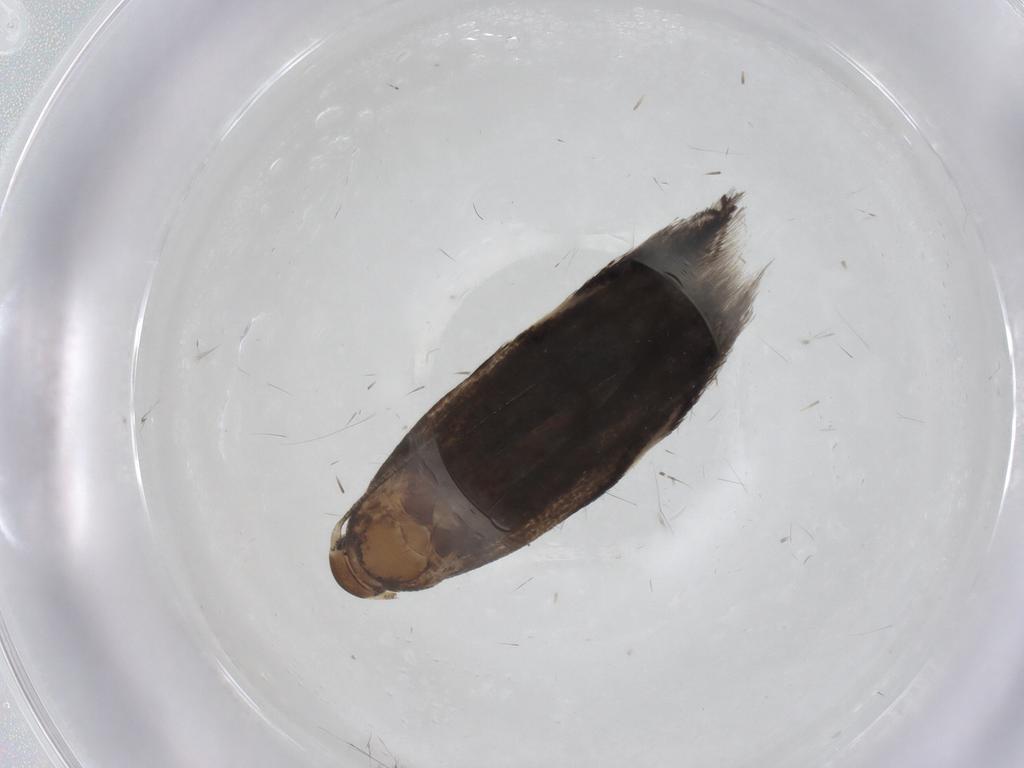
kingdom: Animalia
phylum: Arthropoda
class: Insecta
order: Lepidoptera
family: Elachistidae
